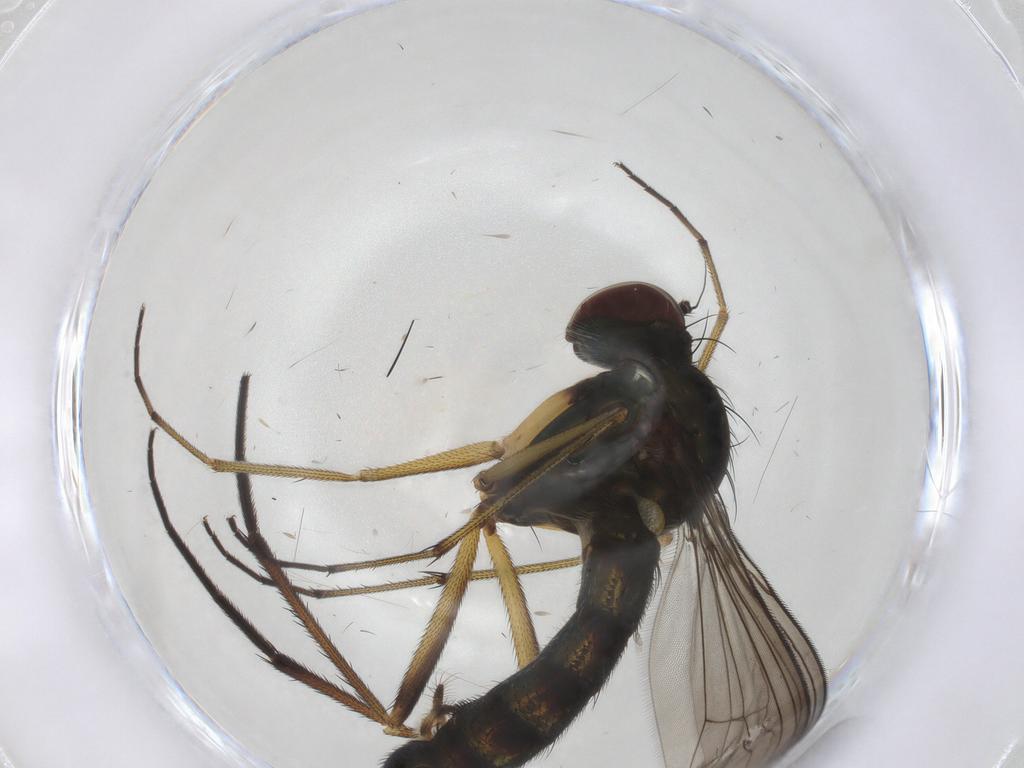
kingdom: Animalia
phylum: Arthropoda
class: Insecta
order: Diptera
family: Dolichopodidae
